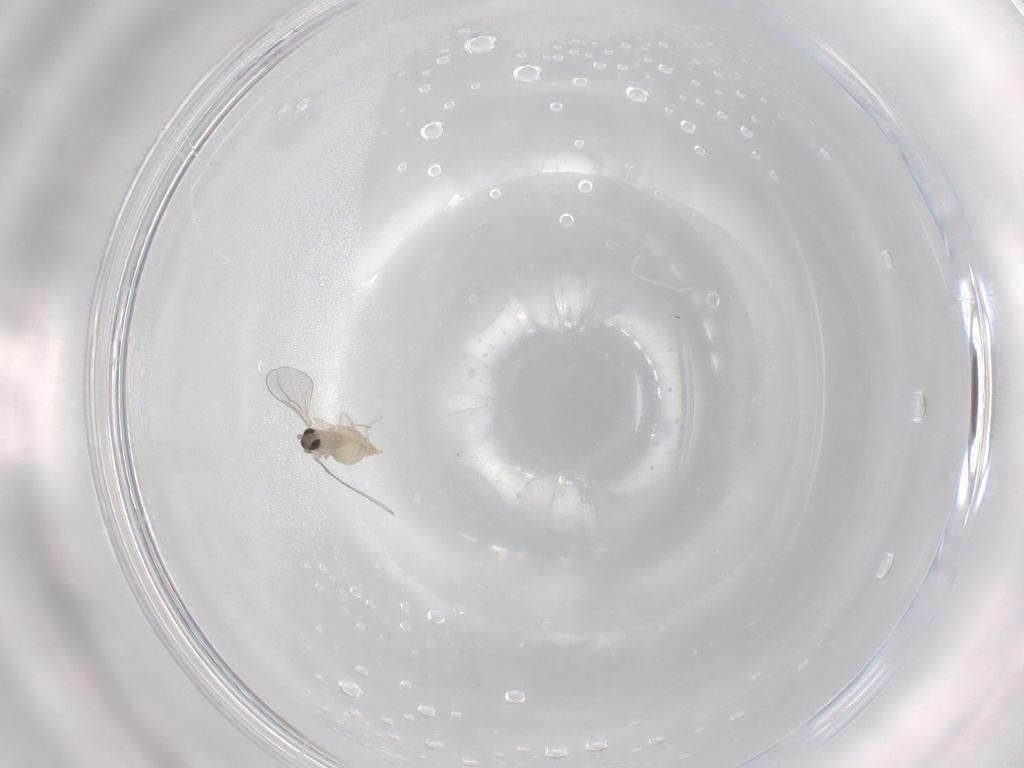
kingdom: Animalia
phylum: Arthropoda
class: Insecta
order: Diptera
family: Cecidomyiidae
